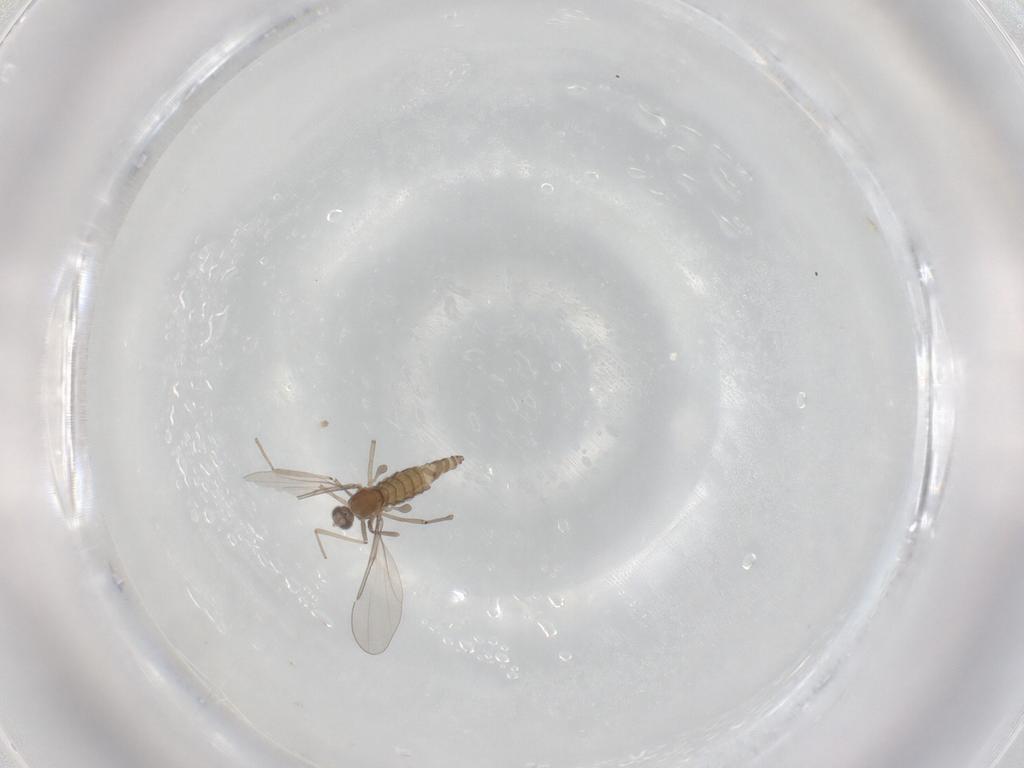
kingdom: Animalia
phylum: Arthropoda
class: Insecta
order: Diptera
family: Cecidomyiidae
